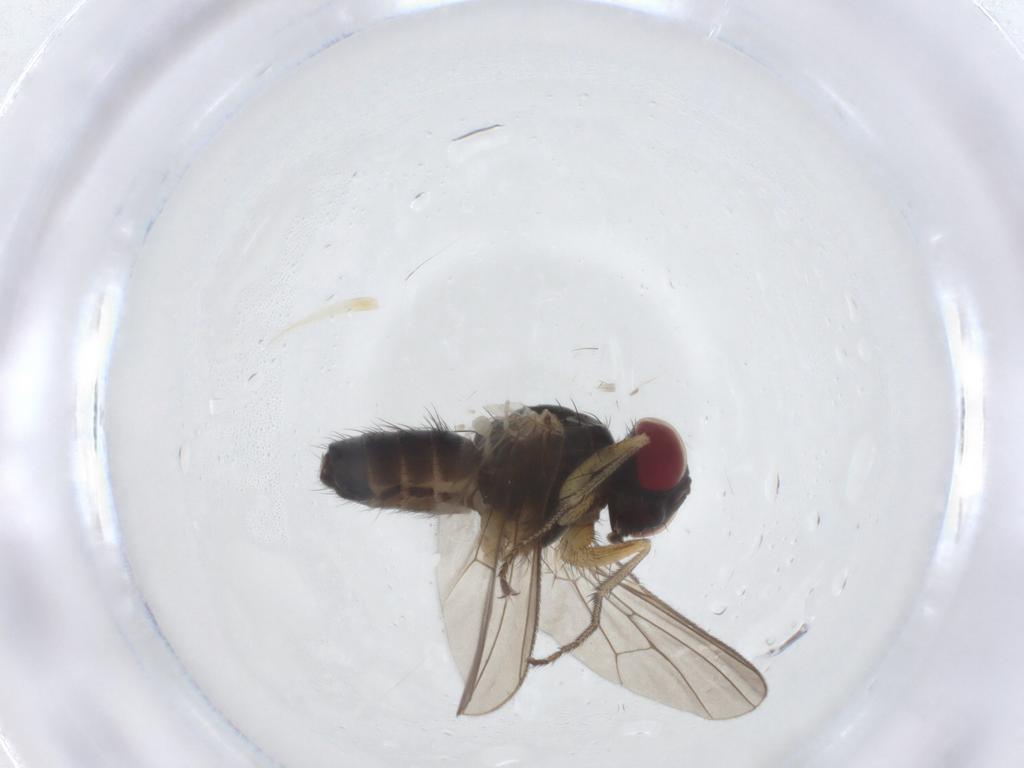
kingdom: Animalia
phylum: Arthropoda
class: Insecta
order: Diptera
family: Muscidae
